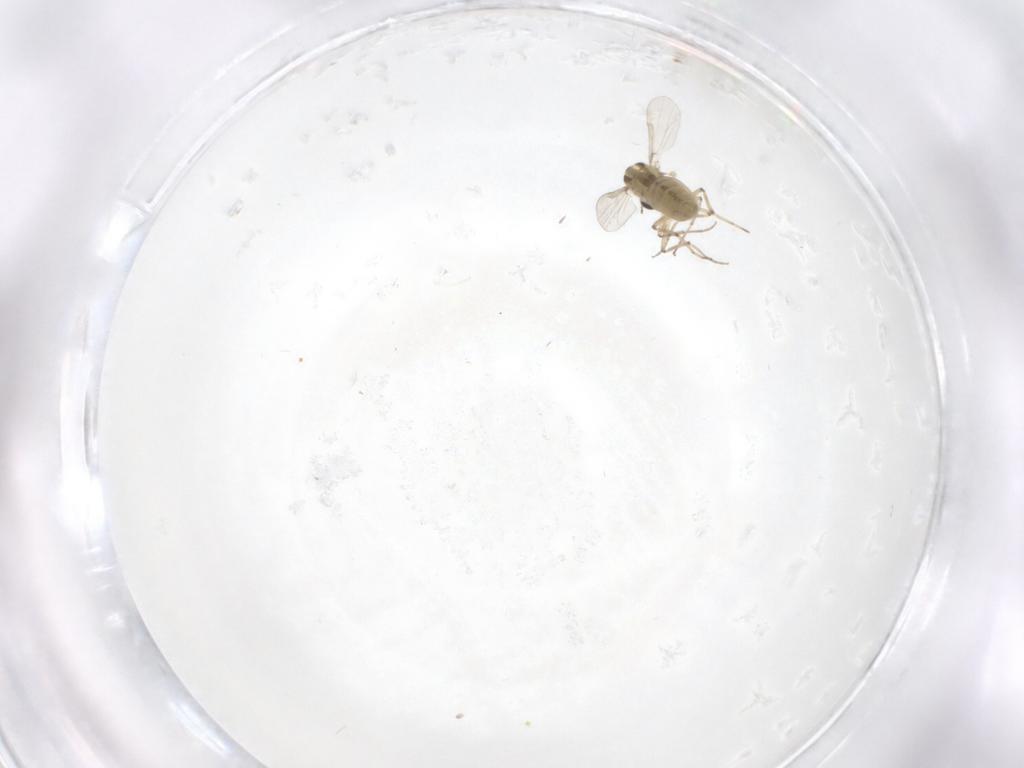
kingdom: Animalia
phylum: Arthropoda
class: Insecta
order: Diptera
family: Chironomidae
